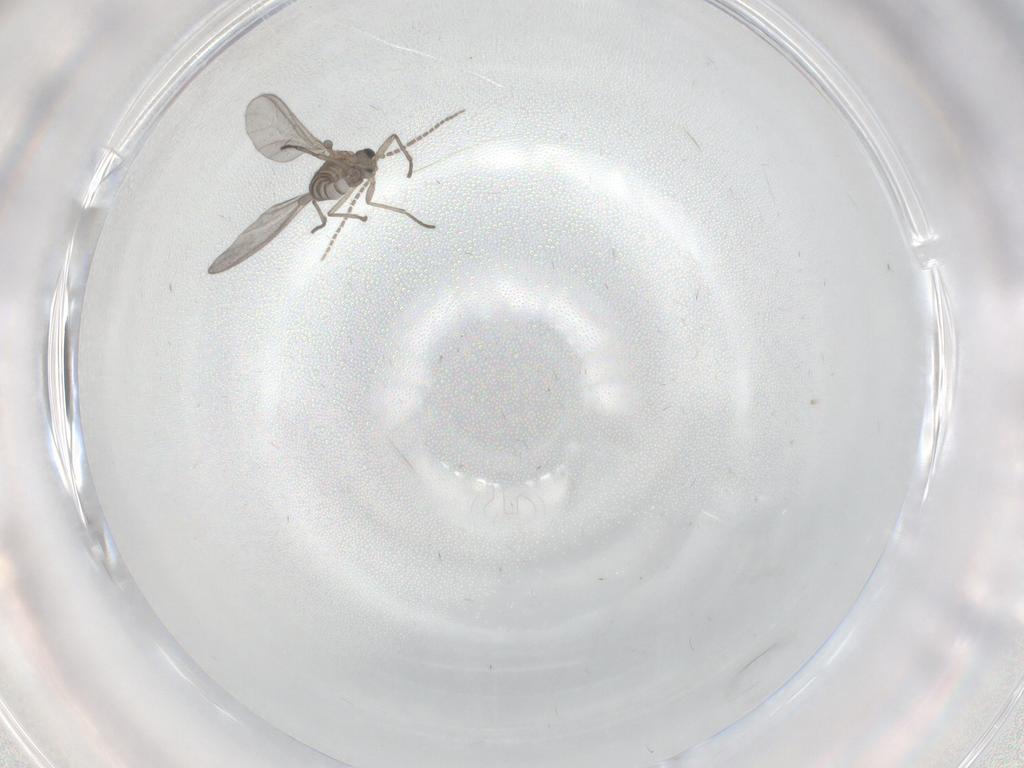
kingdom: Animalia
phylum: Arthropoda
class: Insecta
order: Diptera
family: Sciaridae
